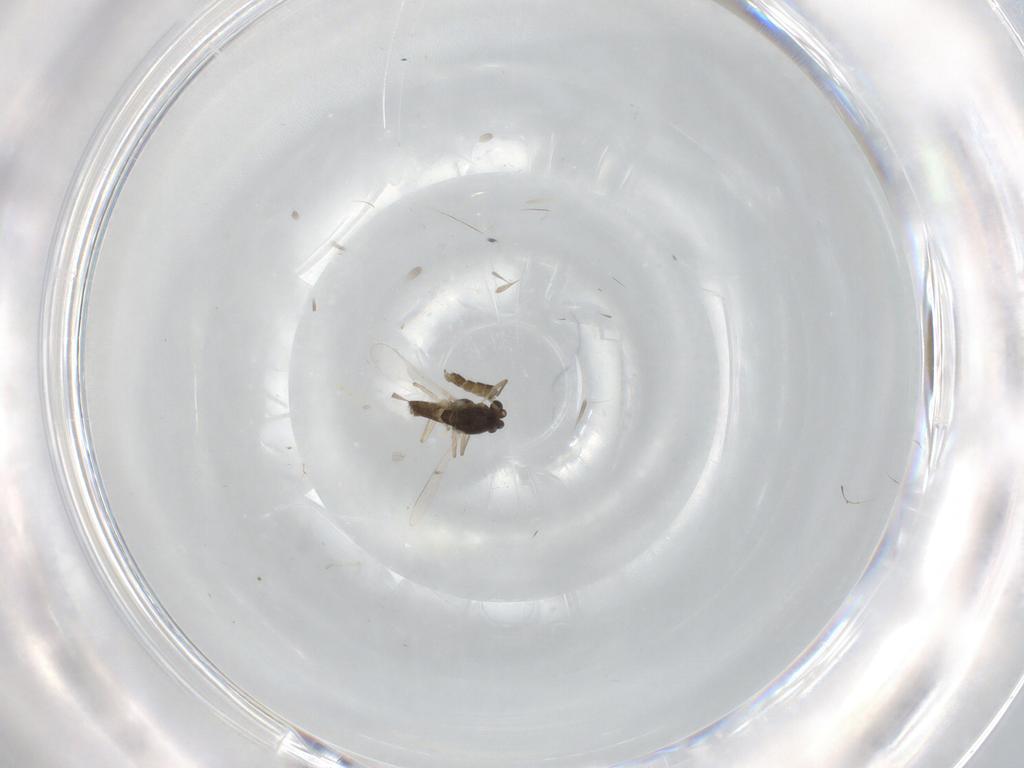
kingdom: Animalia
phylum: Arthropoda
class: Insecta
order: Diptera
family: Cecidomyiidae
